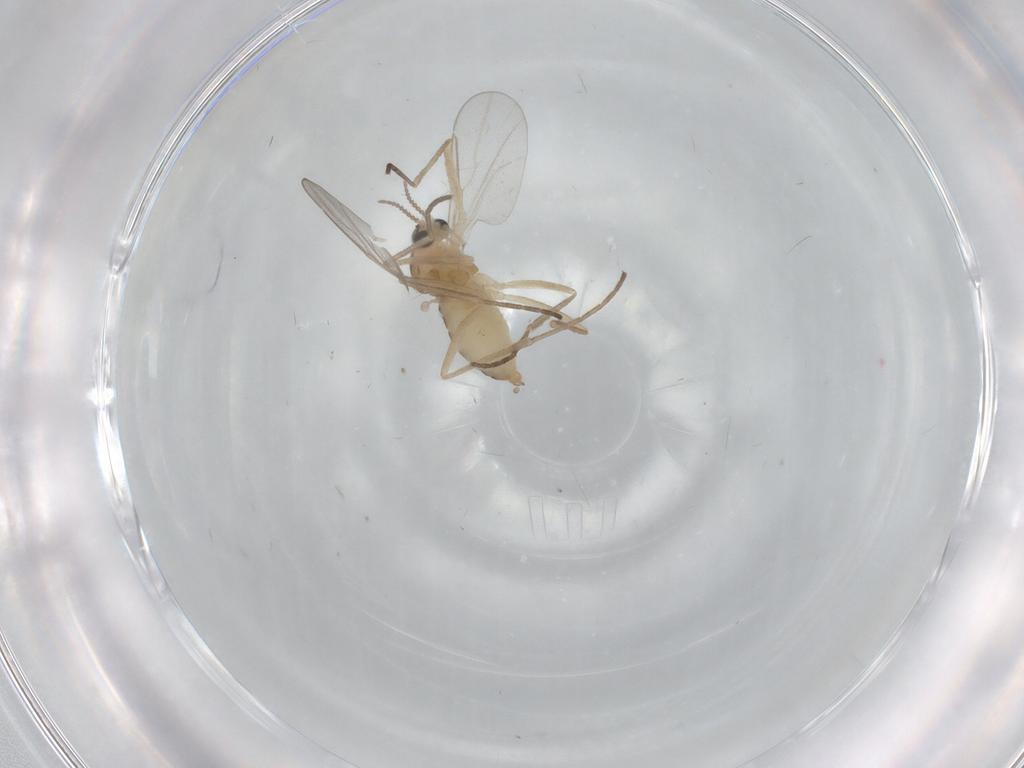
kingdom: Animalia
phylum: Arthropoda
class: Insecta
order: Diptera
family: Cecidomyiidae
